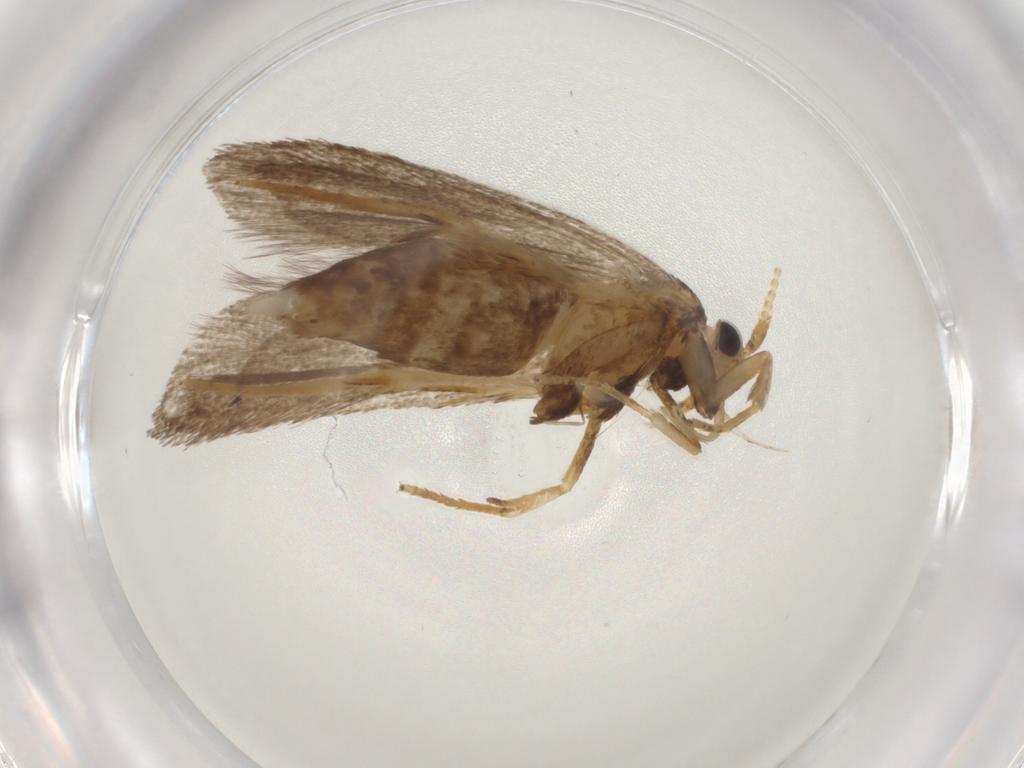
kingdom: Animalia
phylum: Arthropoda
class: Insecta
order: Lepidoptera
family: Lecithoceridae
